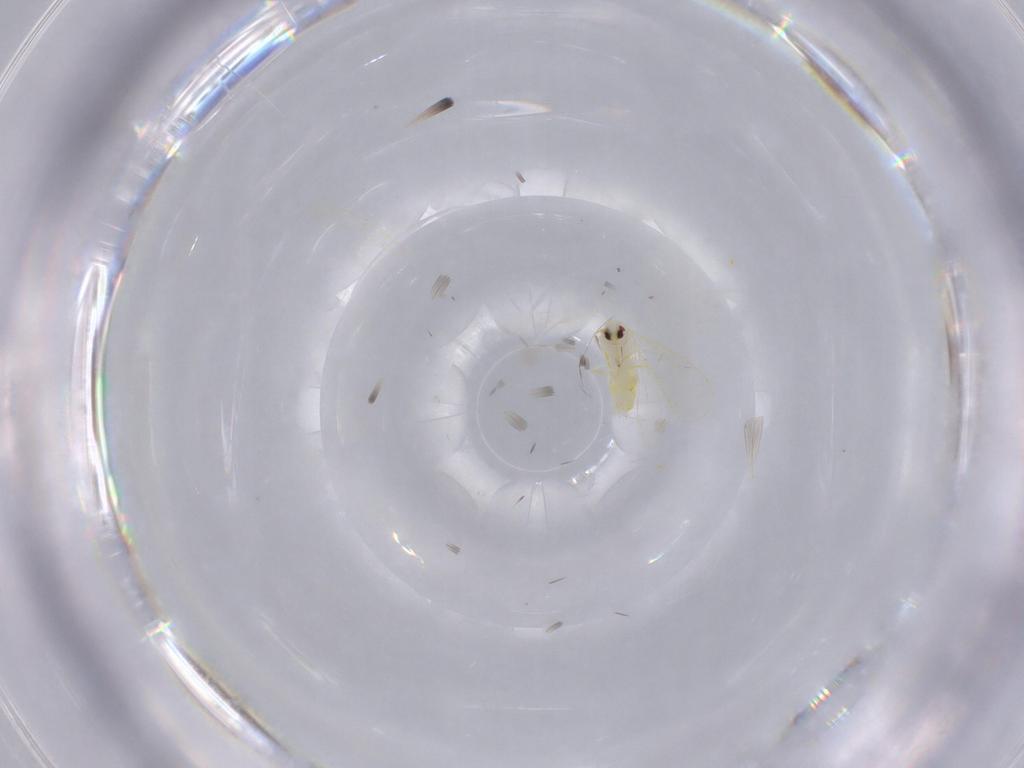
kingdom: Animalia
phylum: Arthropoda
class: Insecta
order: Hemiptera
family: Rhyparochromidae
